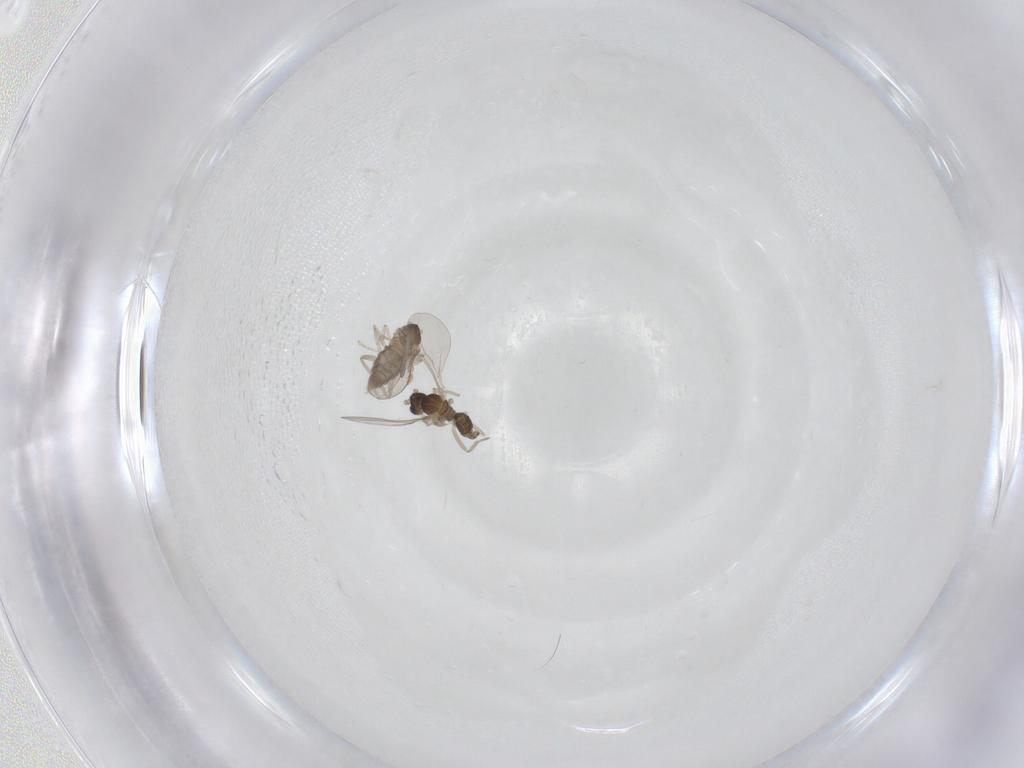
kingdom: Animalia
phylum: Arthropoda
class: Insecta
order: Diptera
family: Cecidomyiidae
